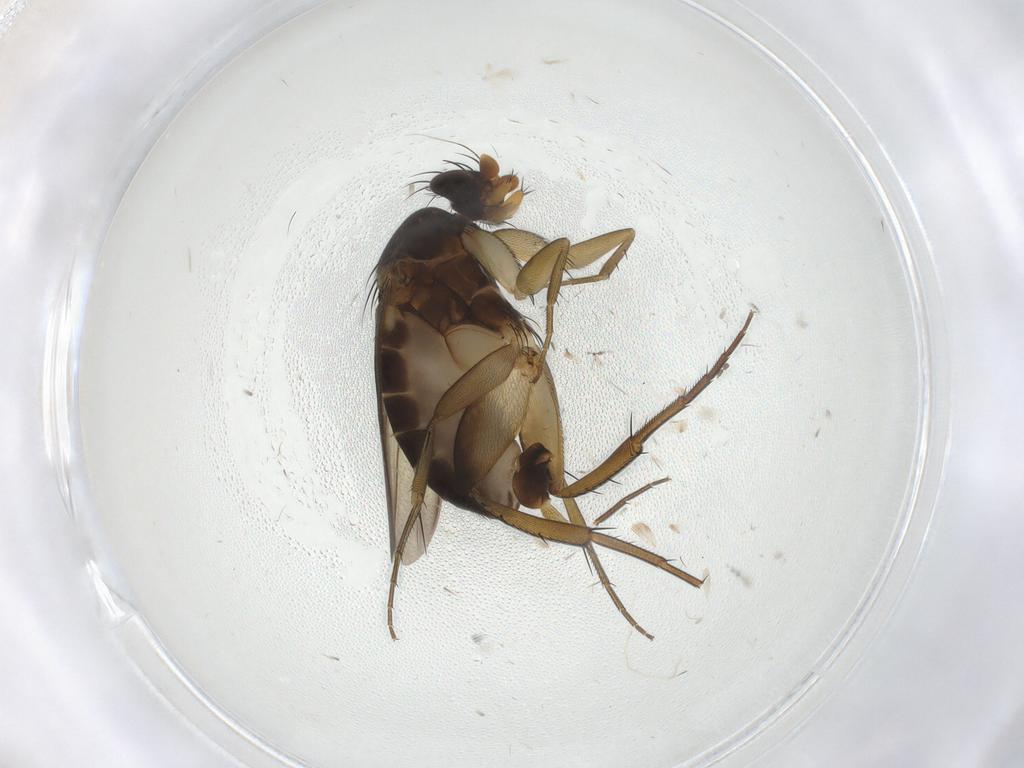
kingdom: Animalia
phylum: Arthropoda
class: Insecta
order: Diptera
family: Phoridae
